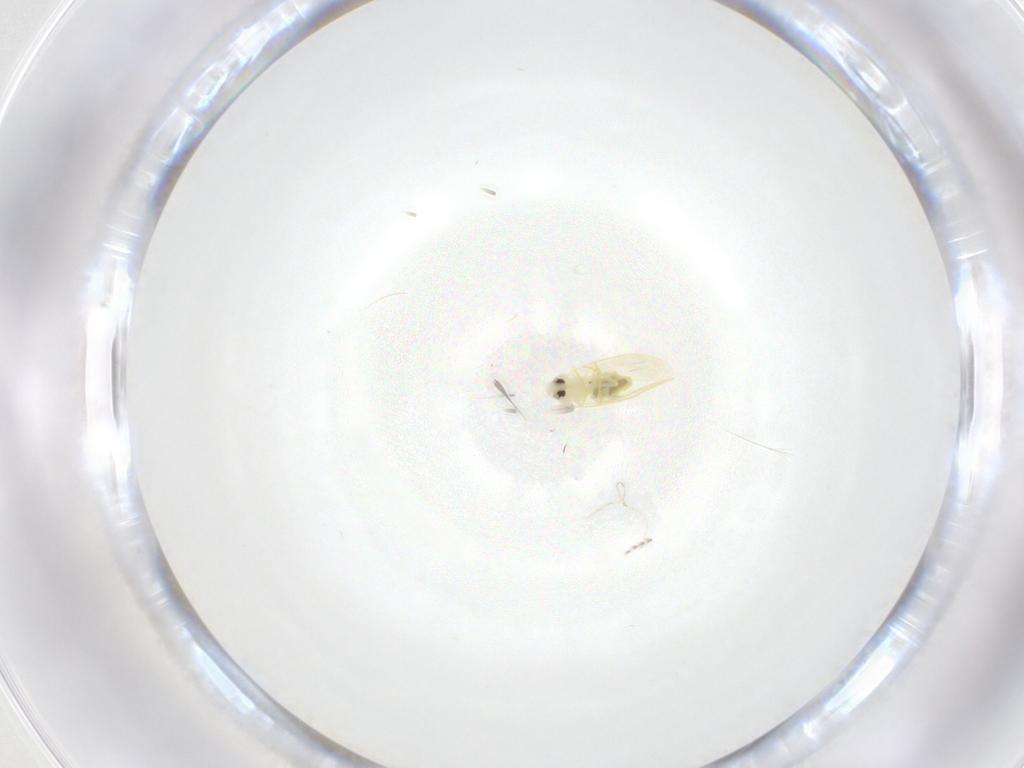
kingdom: Animalia
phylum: Arthropoda
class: Insecta
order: Hemiptera
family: Aleyrodidae
